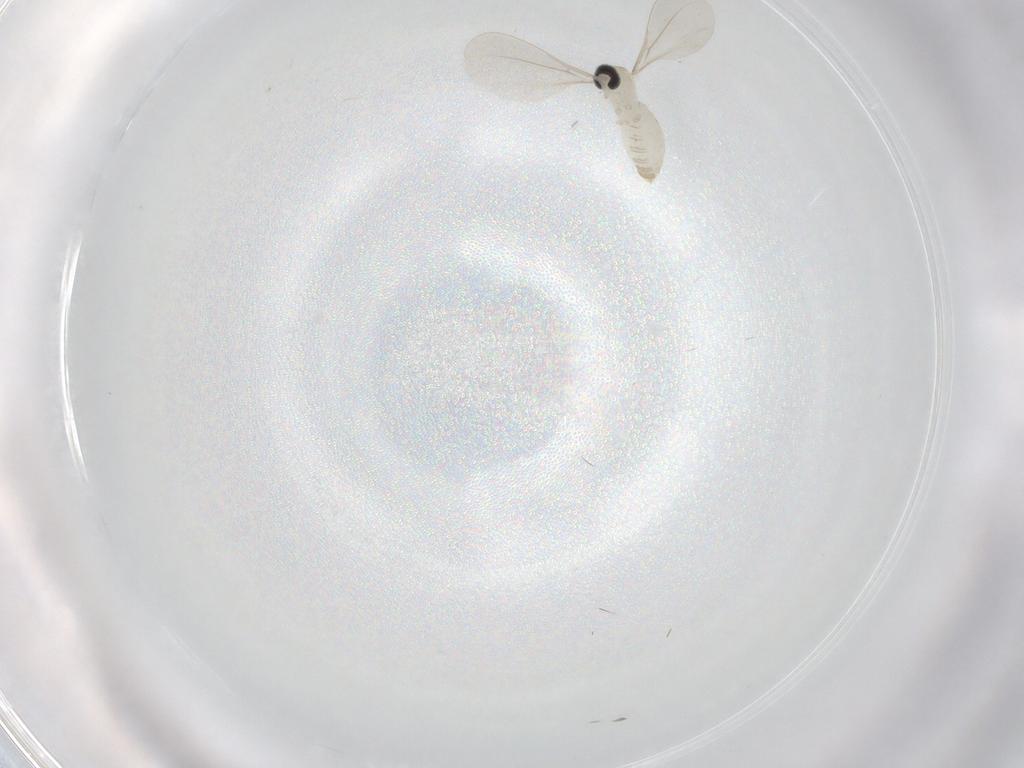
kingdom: Animalia
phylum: Arthropoda
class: Insecta
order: Diptera
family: Cecidomyiidae
